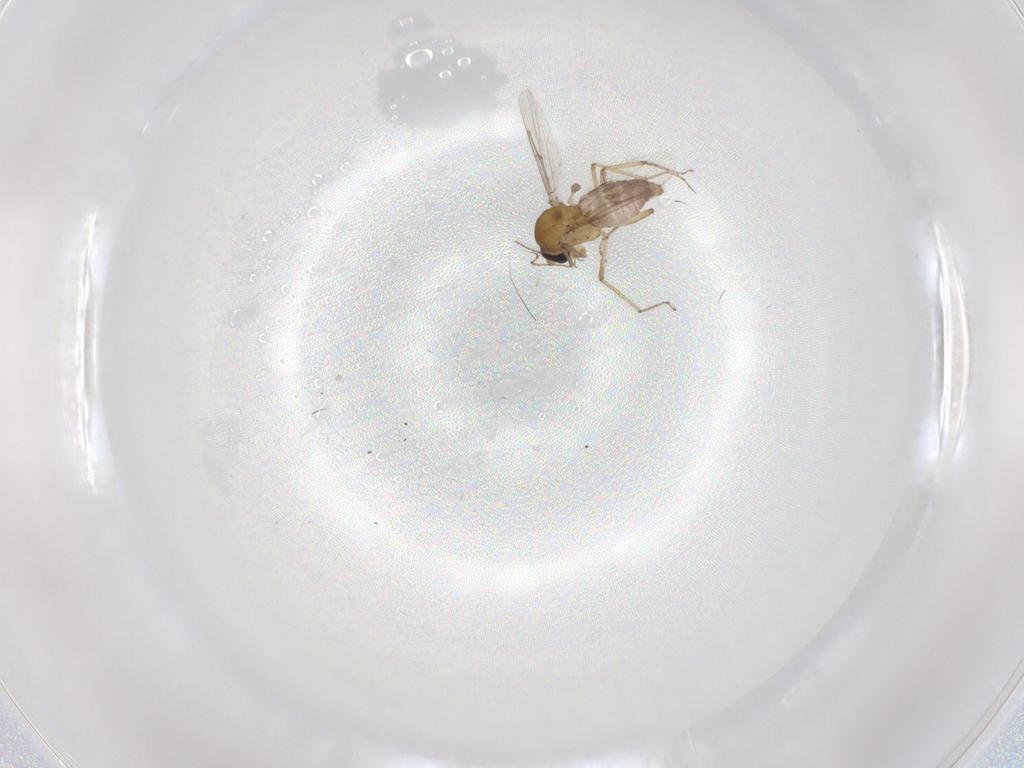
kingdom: Animalia
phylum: Arthropoda
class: Insecta
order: Diptera
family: Ceratopogonidae
